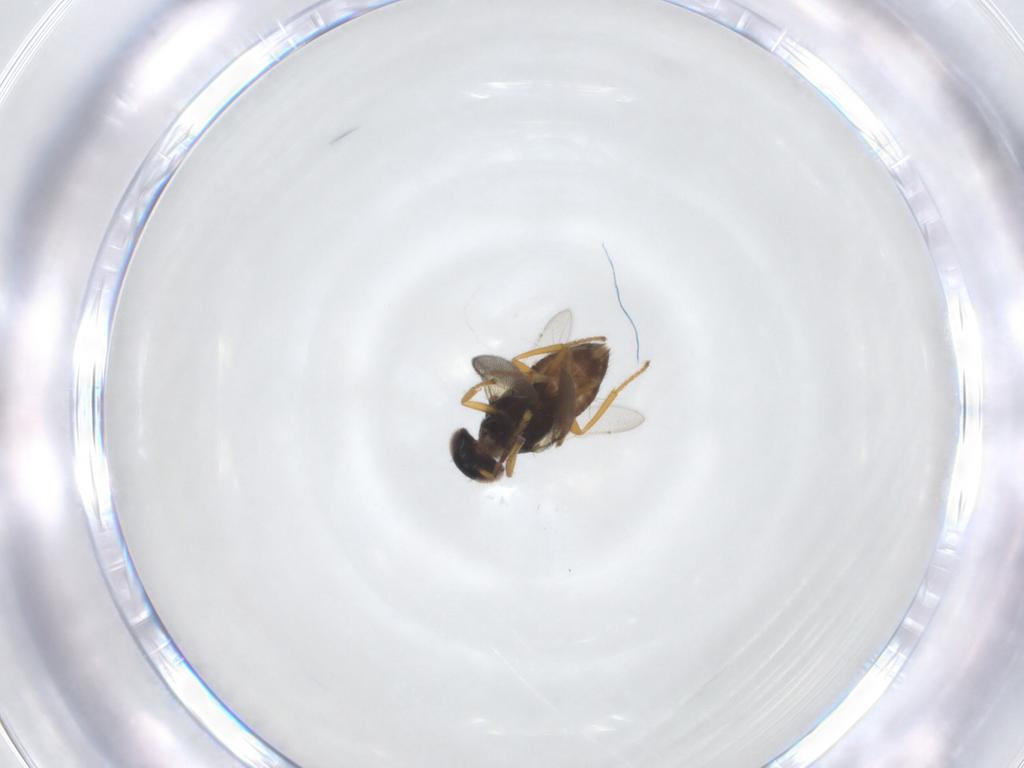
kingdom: Animalia
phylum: Arthropoda
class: Insecta
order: Hymenoptera
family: Encyrtidae
